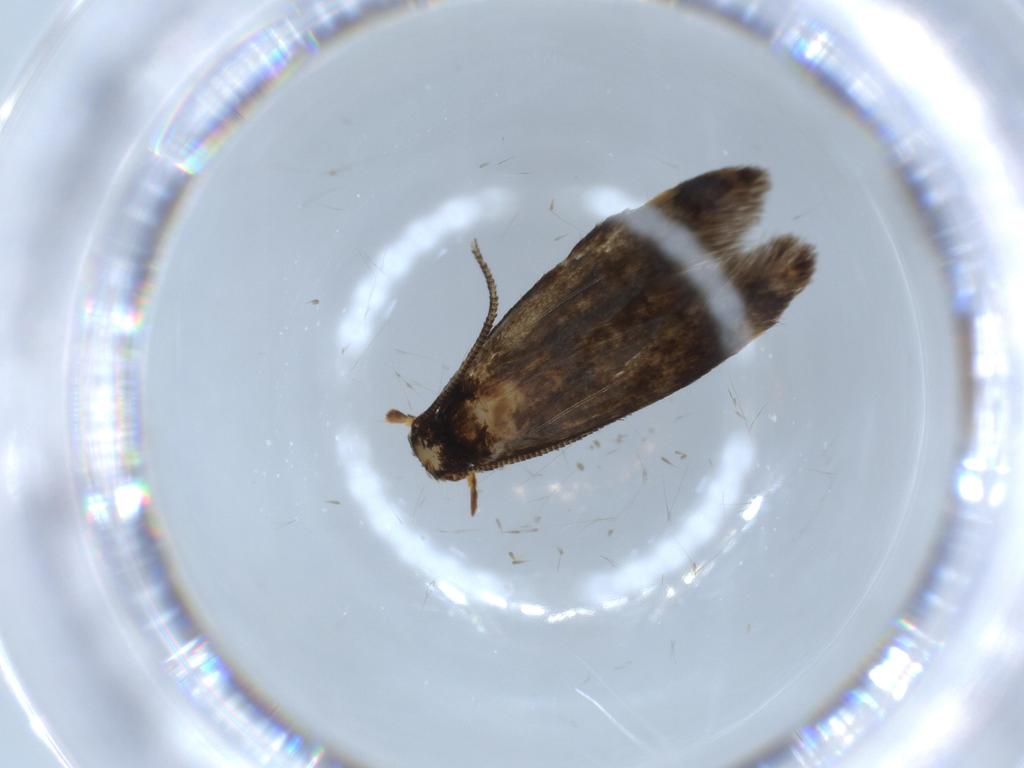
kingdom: Animalia
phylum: Arthropoda
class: Insecta
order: Lepidoptera
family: Tineidae
